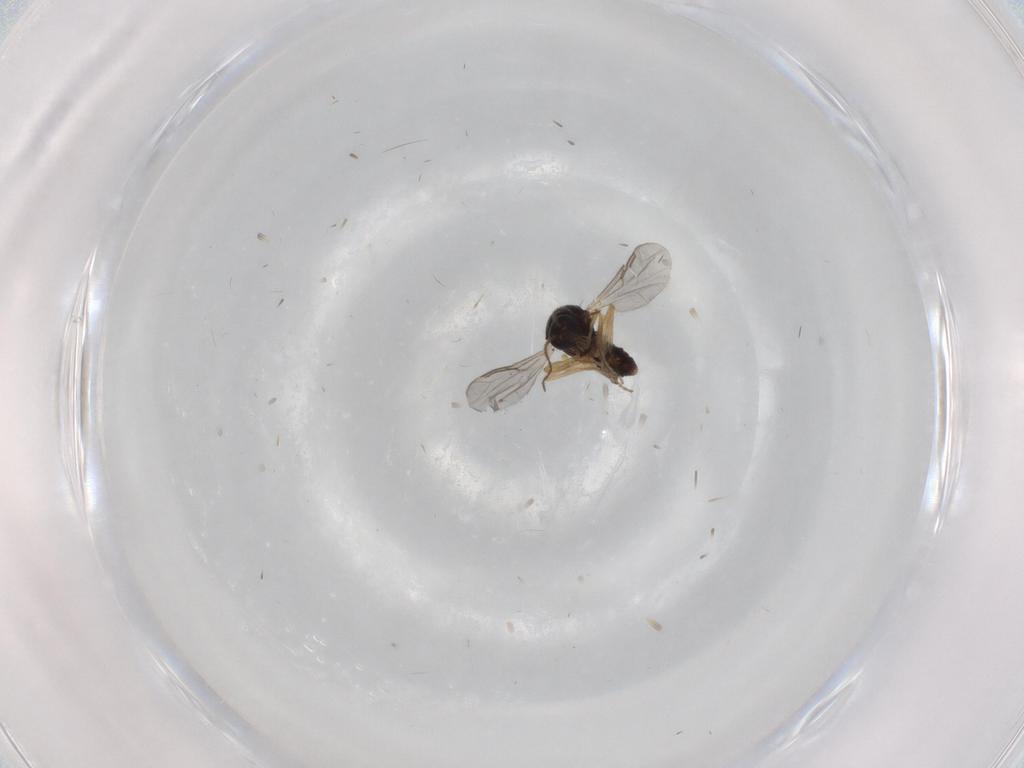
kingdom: Animalia
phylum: Arthropoda
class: Insecta
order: Diptera
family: Ceratopogonidae
